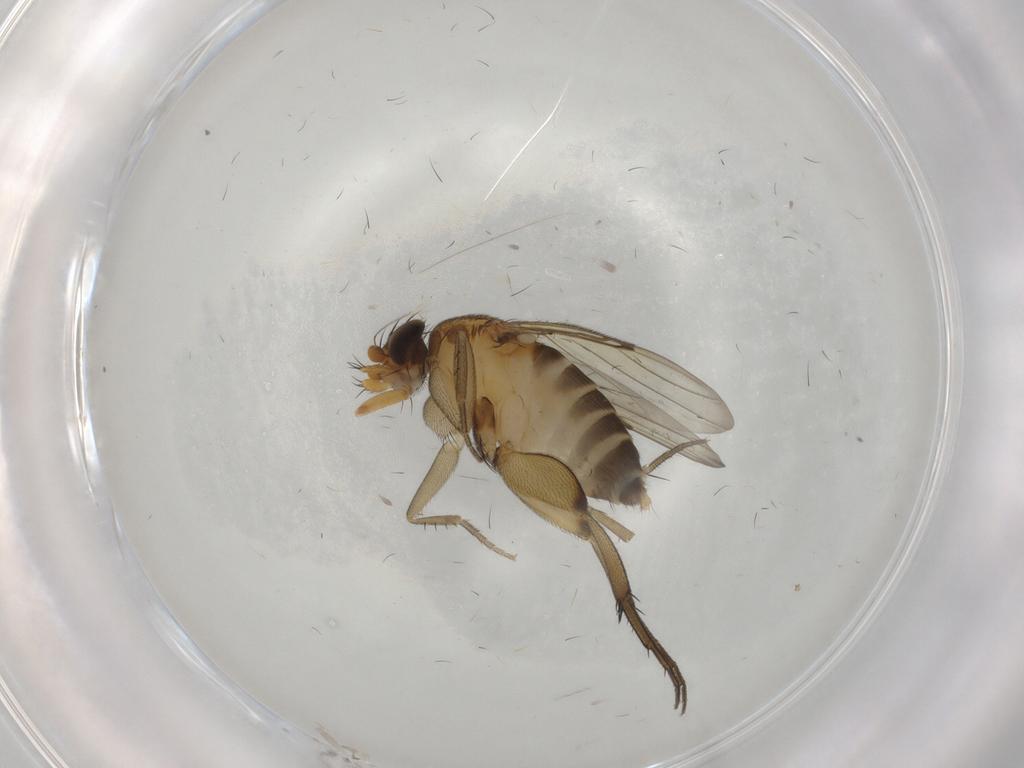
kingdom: Animalia
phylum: Arthropoda
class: Insecta
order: Diptera
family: Phoridae
